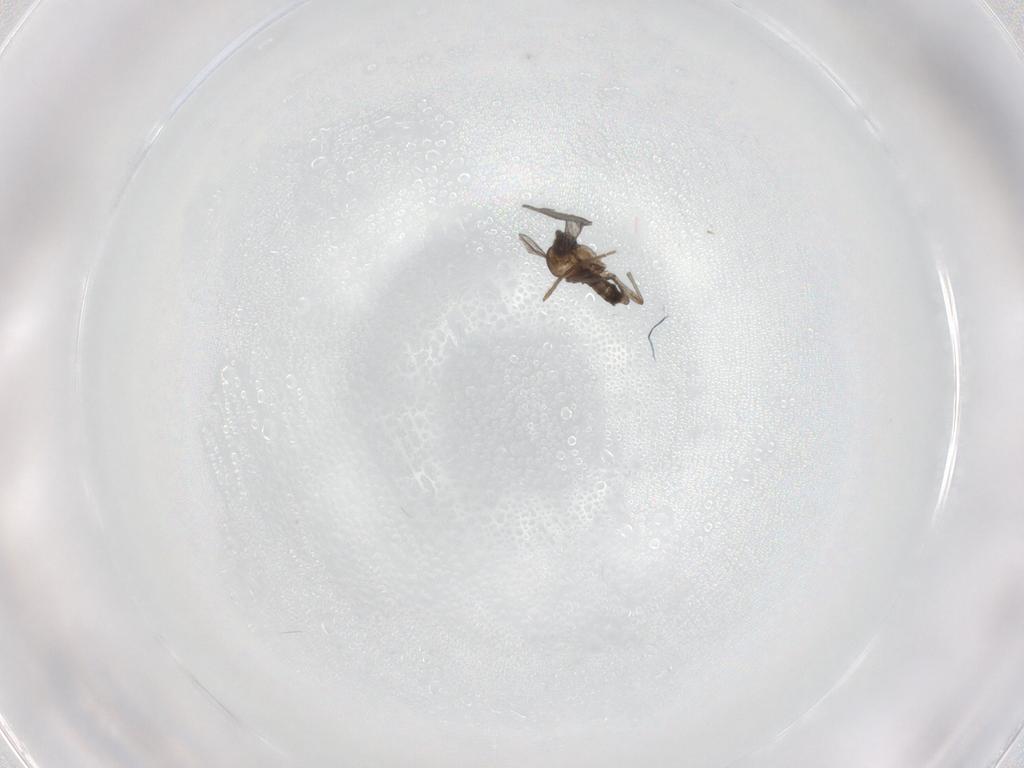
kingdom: Animalia
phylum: Arthropoda
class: Insecta
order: Diptera
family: Sciaridae
